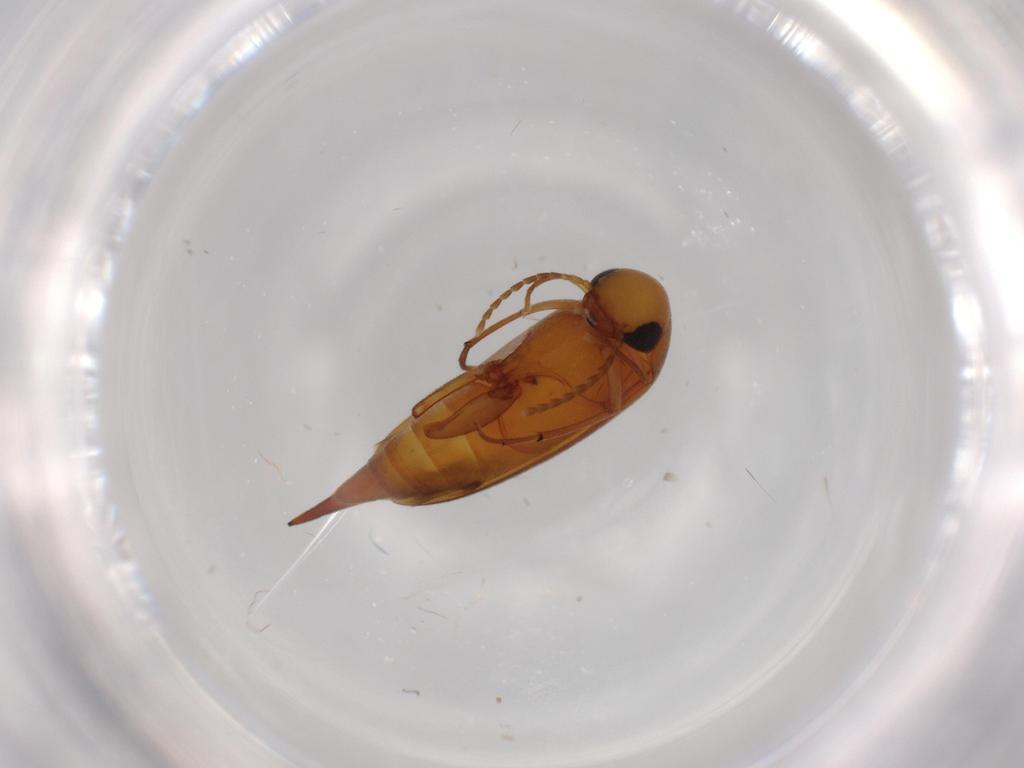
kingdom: Animalia
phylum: Arthropoda
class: Insecta
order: Coleoptera
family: Mordellidae
